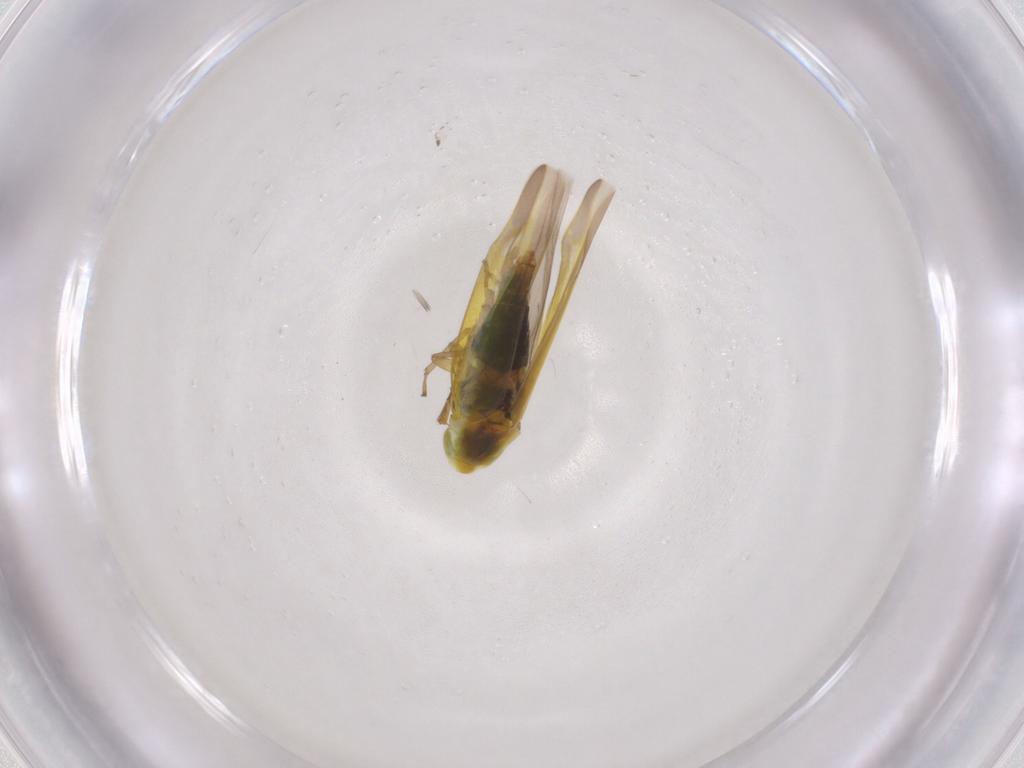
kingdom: Animalia
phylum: Arthropoda
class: Insecta
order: Hemiptera
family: Cicadellidae
